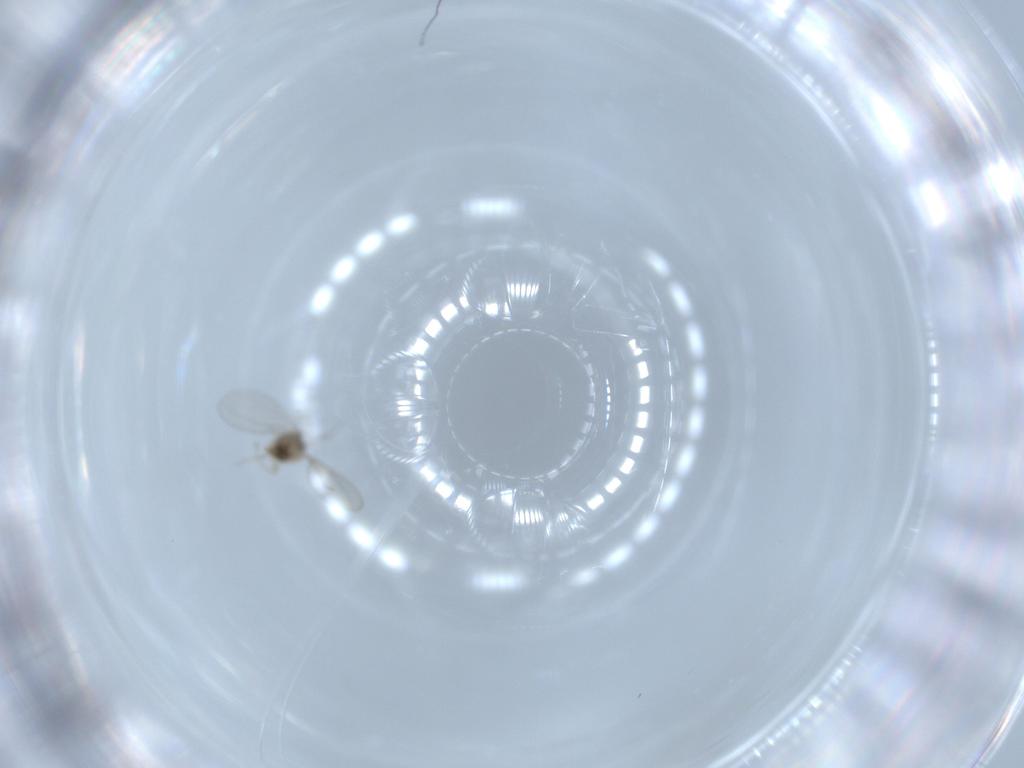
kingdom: Animalia
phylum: Arthropoda
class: Insecta
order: Diptera
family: Cecidomyiidae
